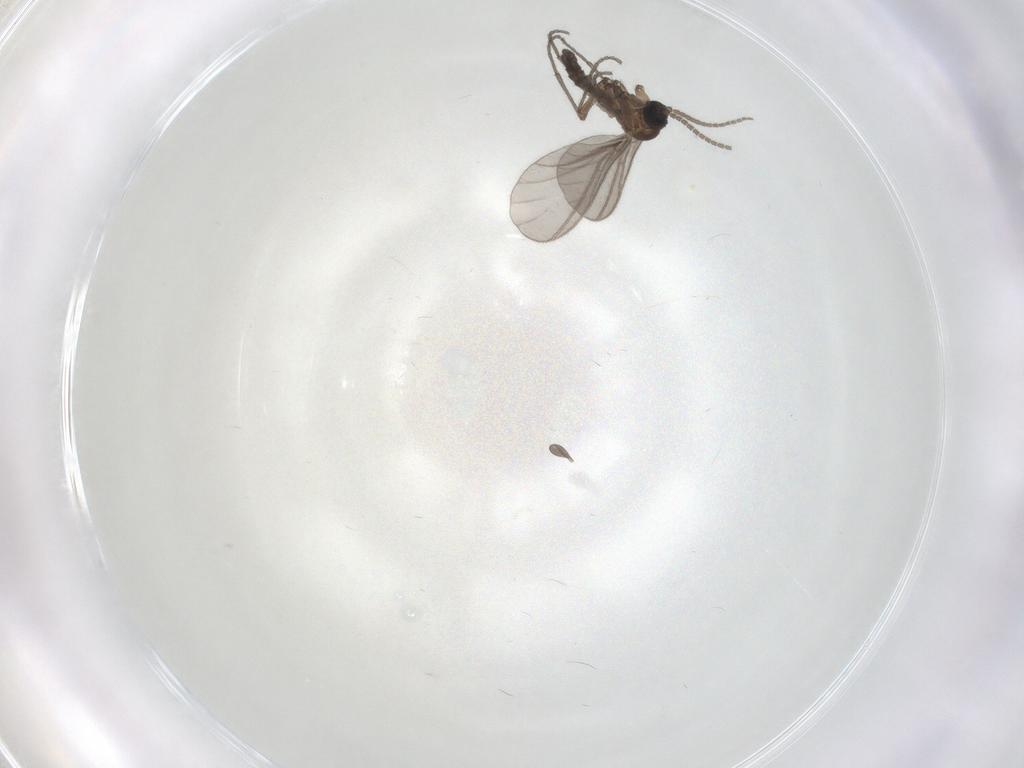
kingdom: Animalia
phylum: Arthropoda
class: Insecta
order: Diptera
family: Sciaridae
